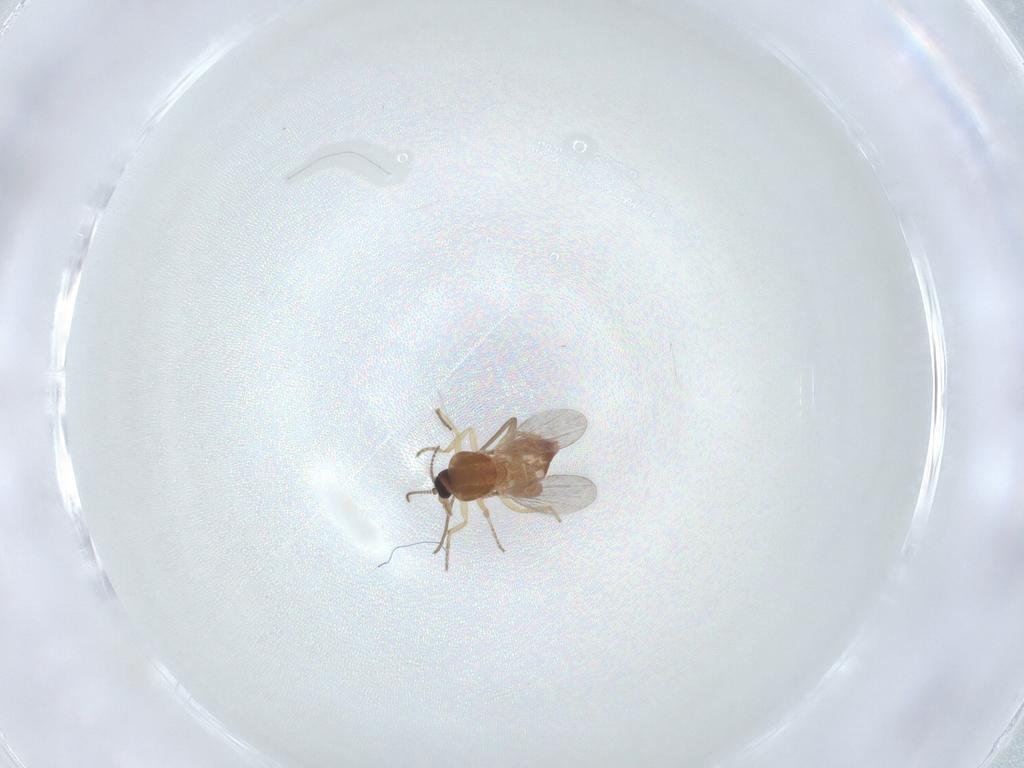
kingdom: Animalia
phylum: Arthropoda
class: Insecta
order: Diptera
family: Ceratopogonidae
